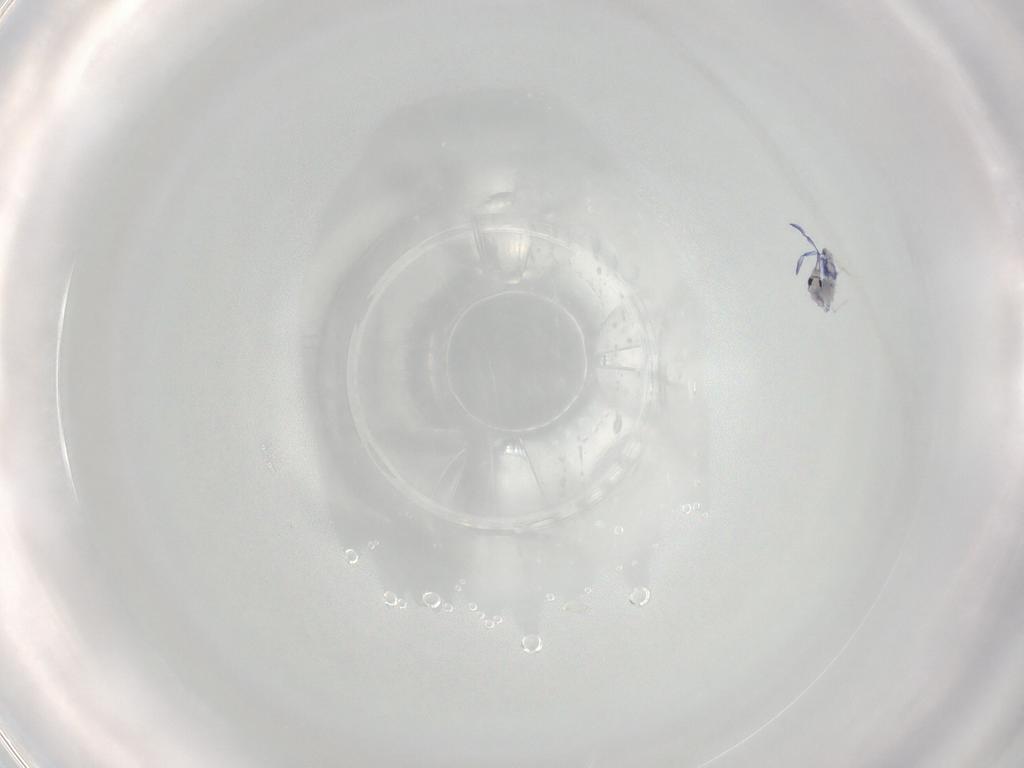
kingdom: Animalia
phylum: Arthropoda
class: Collembola
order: Entomobryomorpha
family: Entomobryidae
